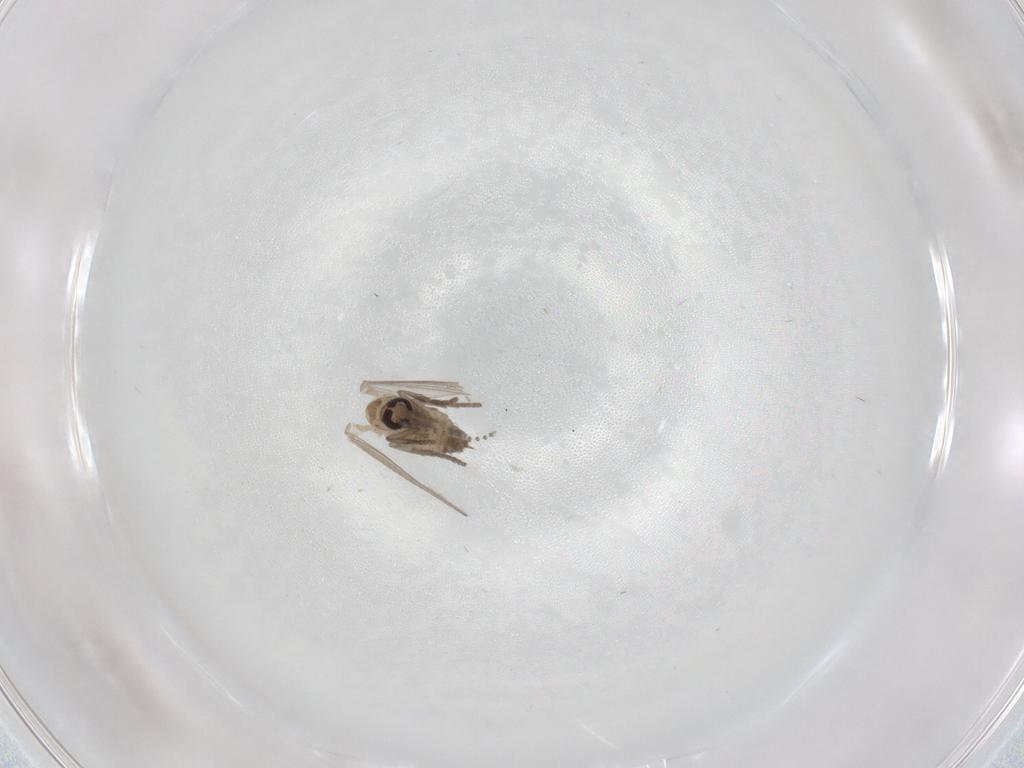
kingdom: Animalia
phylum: Arthropoda
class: Insecta
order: Diptera
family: Psychodidae
